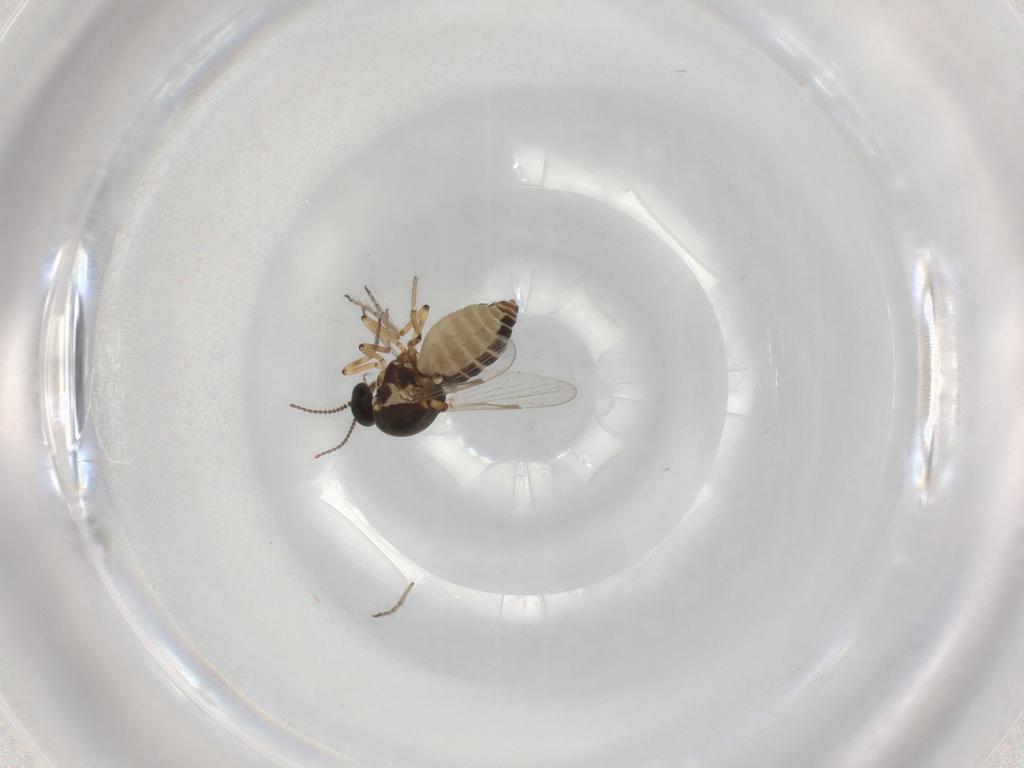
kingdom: Animalia
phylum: Arthropoda
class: Insecta
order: Diptera
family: Ceratopogonidae
